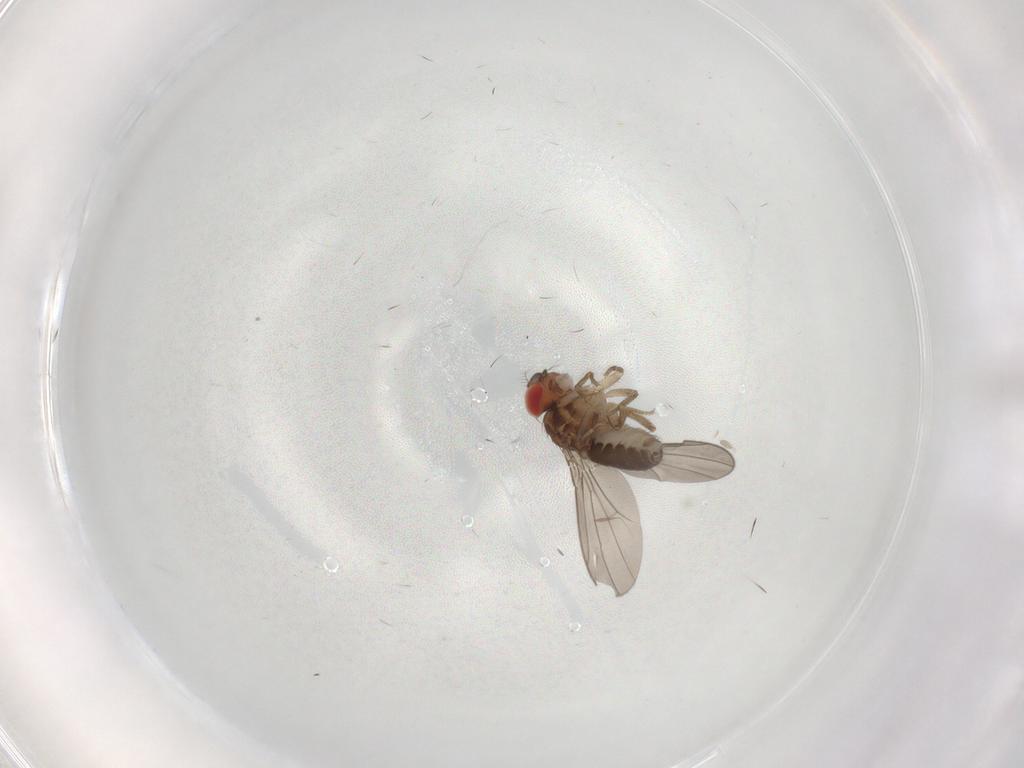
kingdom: Animalia
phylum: Arthropoda
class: Insecta
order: Diptera
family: Drosophilidae
